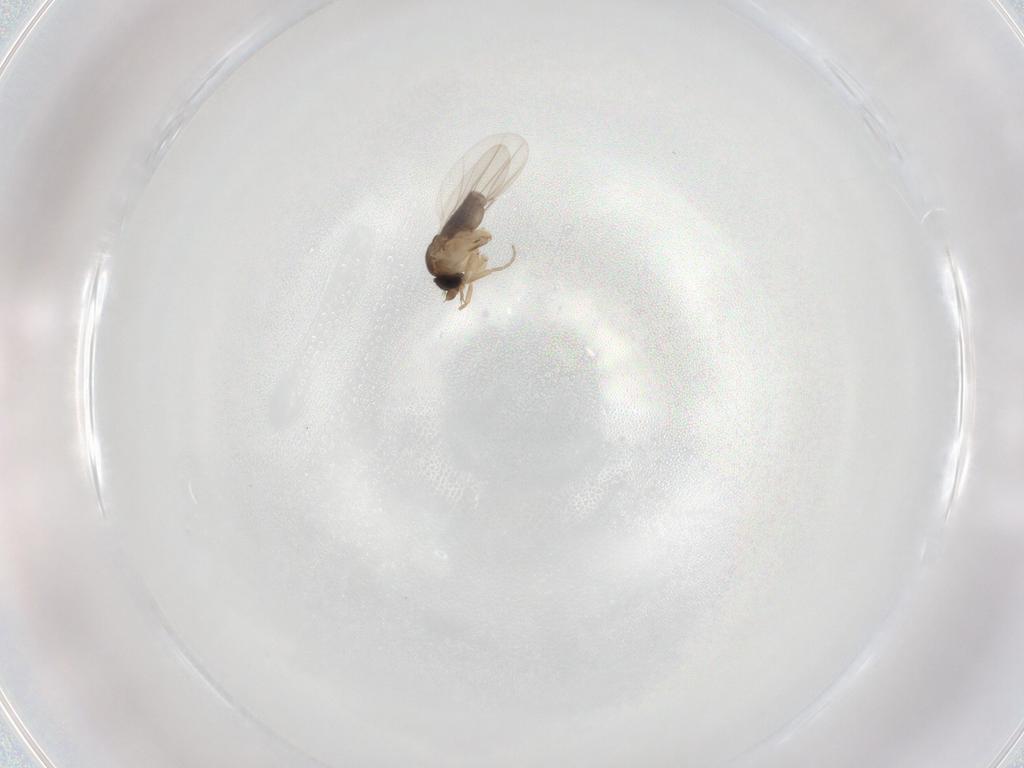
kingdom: Animalia
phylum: Arthropoda
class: Insecta
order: Diptera
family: Phoridae
